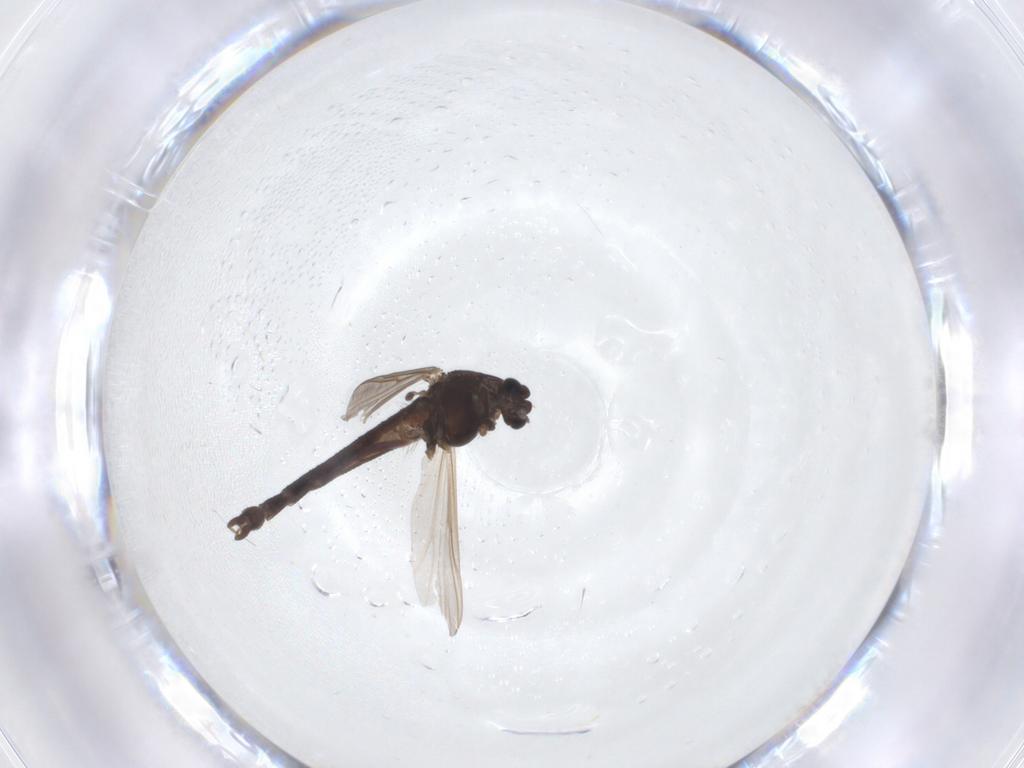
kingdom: Animalia
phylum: Arthropoda
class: Insecta
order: Diptera
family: Chironomidae
